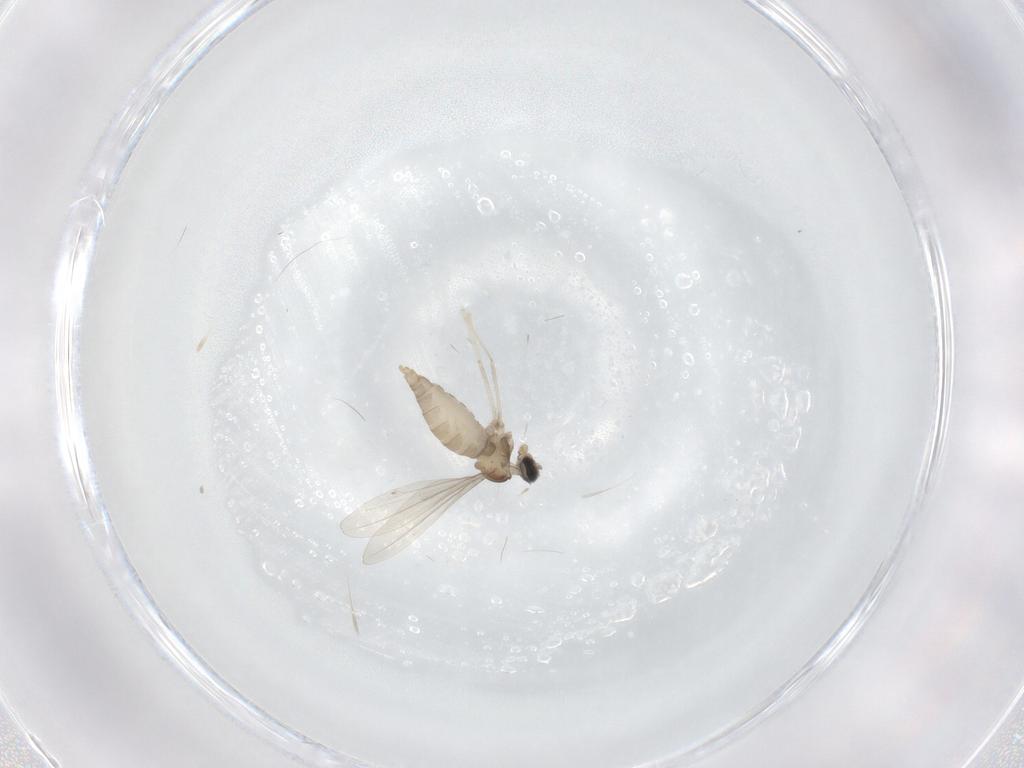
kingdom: Animalia
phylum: Arthropoda
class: Insecta
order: Diptera
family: Cecidomyiidae
